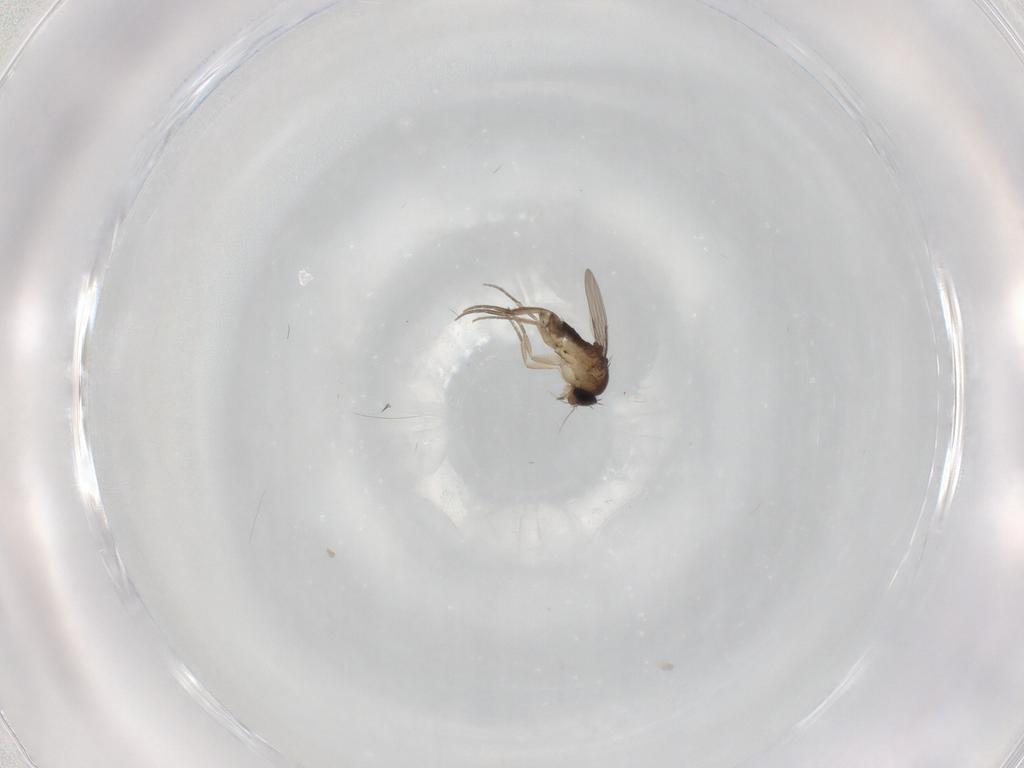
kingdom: Animalia
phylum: Arthropoda
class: Insecta
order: Diptera
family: Phoridae
